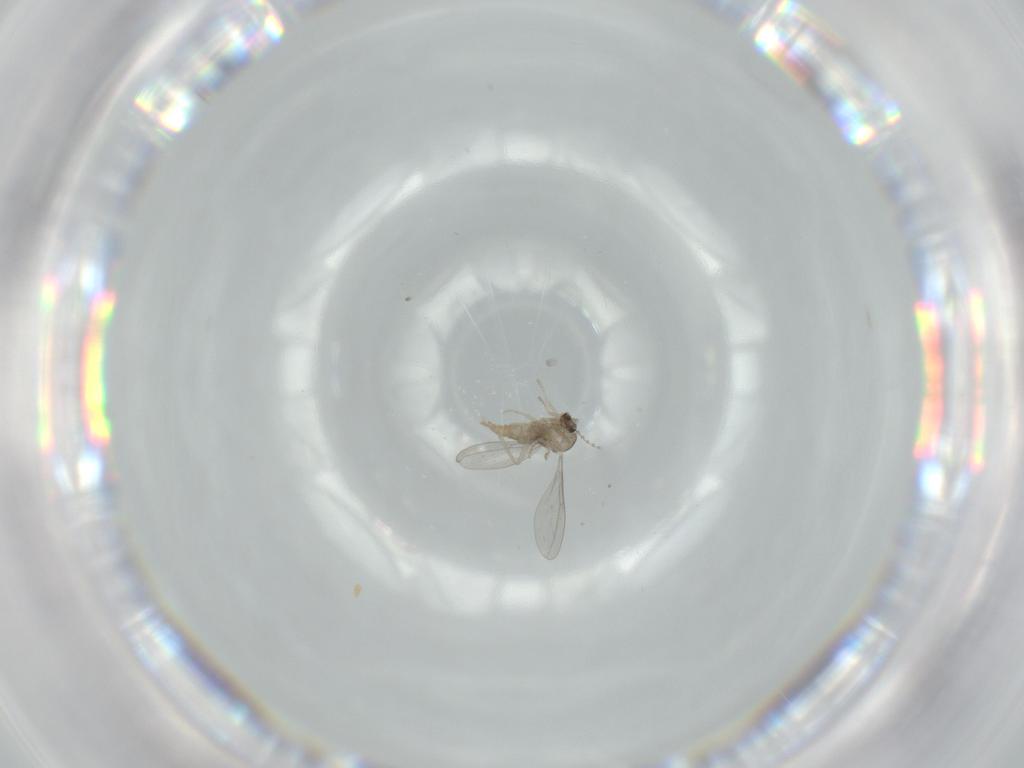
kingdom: Animalia
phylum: Arthropoda
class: Insecta
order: Diptera
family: Cecidomyiidae
